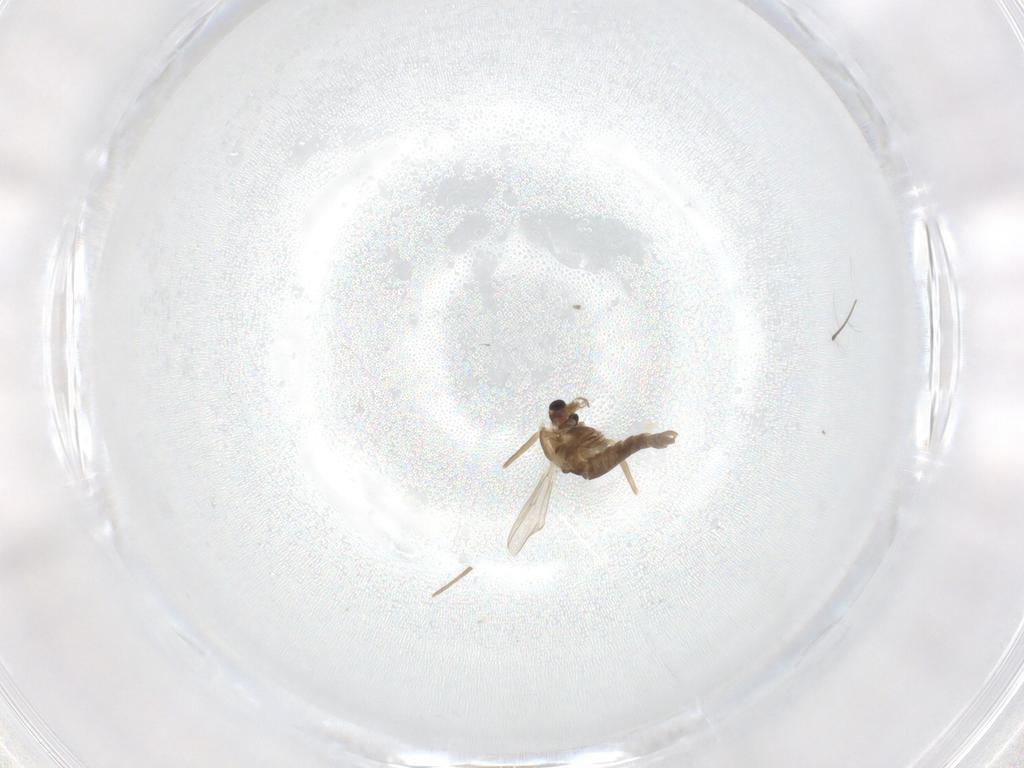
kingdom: Animalia
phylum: Arthropoda
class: Insecta
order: Diptera
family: Chironomidae
